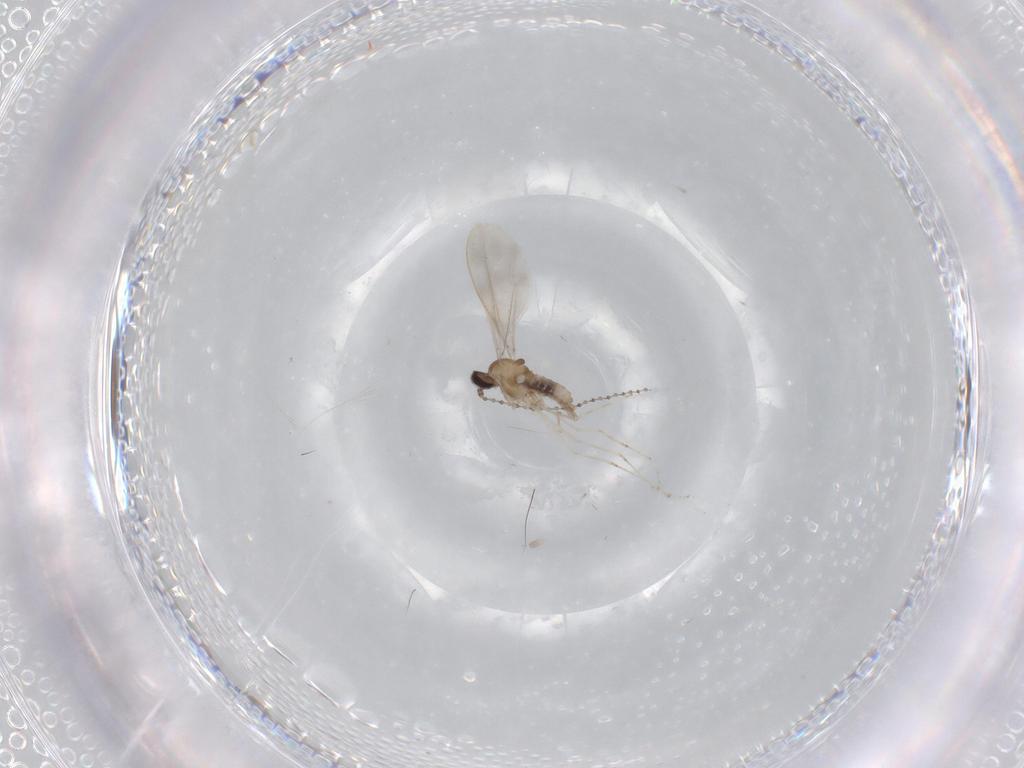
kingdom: Animalia
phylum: Arthropoda
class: Insecta
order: Diptera
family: Cecidomyiidae
